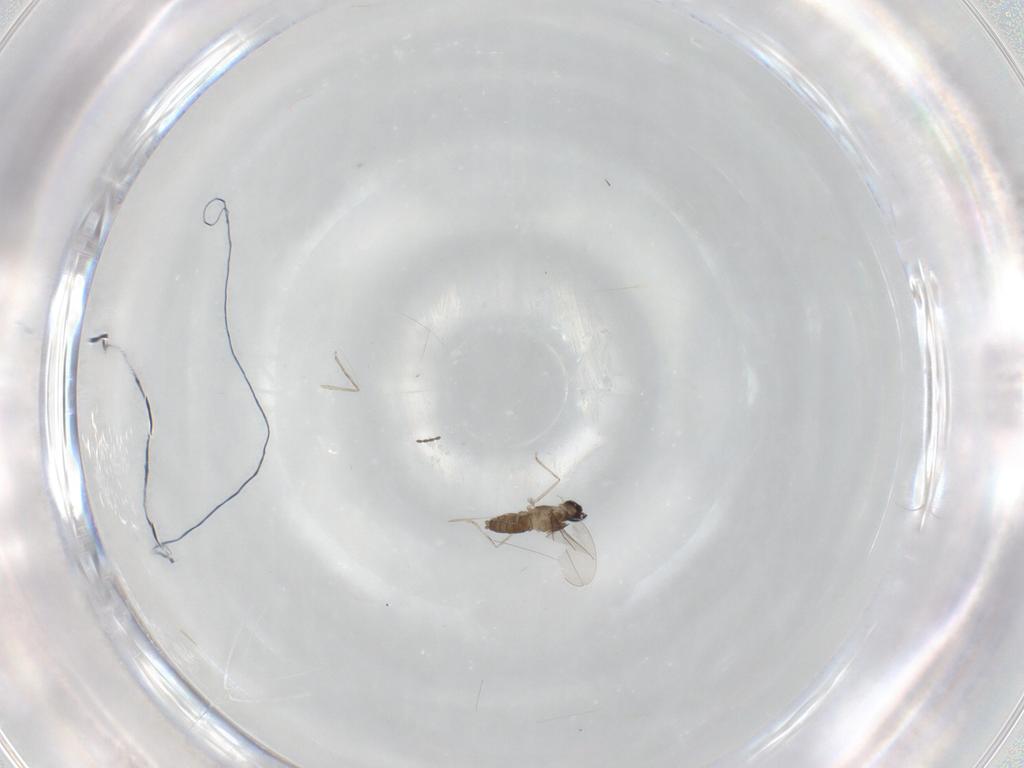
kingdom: Animalia
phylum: Arthropoda
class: Insecta
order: Diptera
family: Cecidomyiidae
